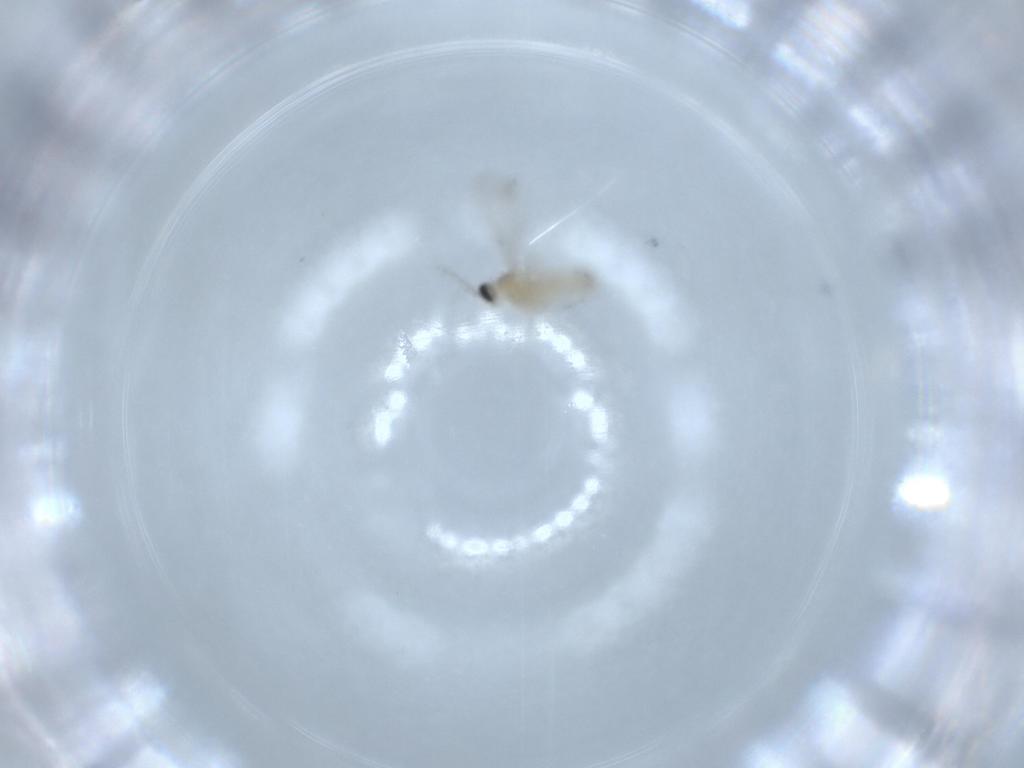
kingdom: Animalia
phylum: Arthropoda
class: Insecta
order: Diptera
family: Cecidomyiidae
